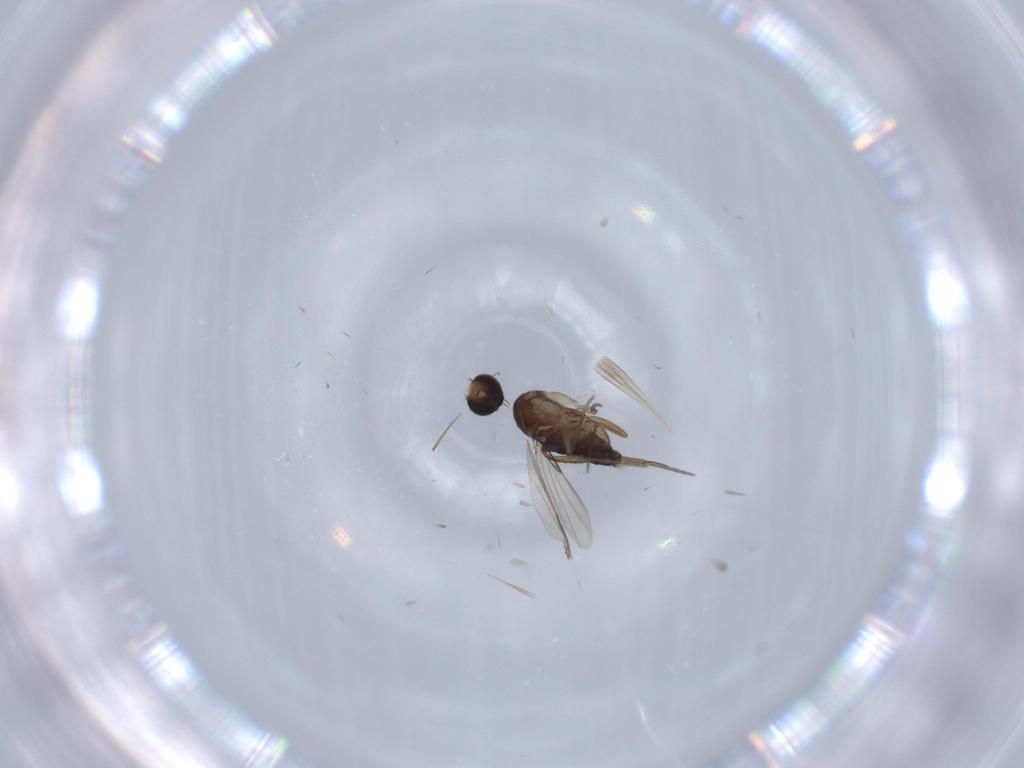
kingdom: Animalia
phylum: Arthropoda
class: Insecta
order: Diptera
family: Phoridae
